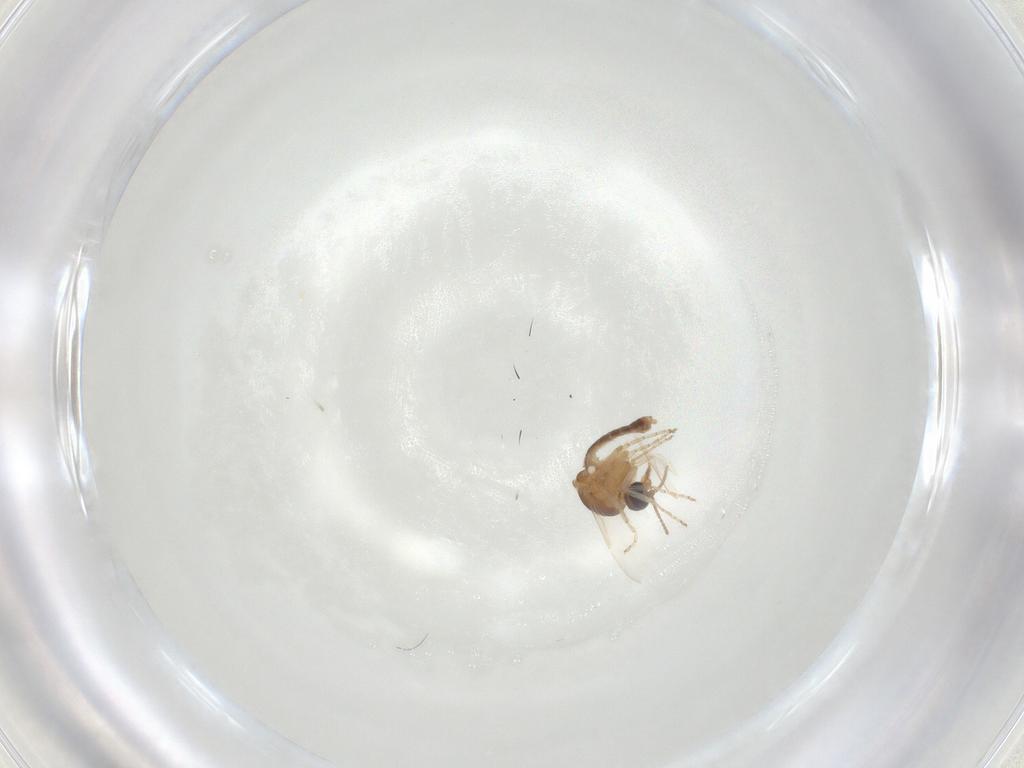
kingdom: Animalia
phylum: Arthropoda
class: Insecta
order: Diptera
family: Ceratopogonidae
